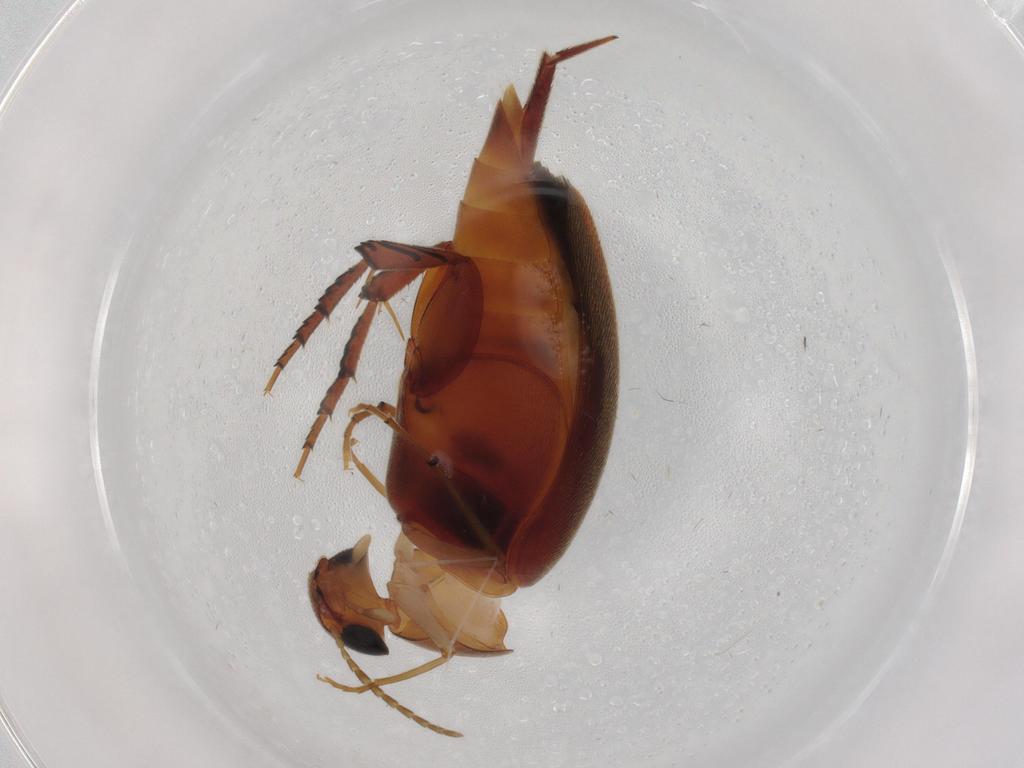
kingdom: Animalia
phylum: Arthropoda
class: Insecta
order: Coleoptera
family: Mordellidae
